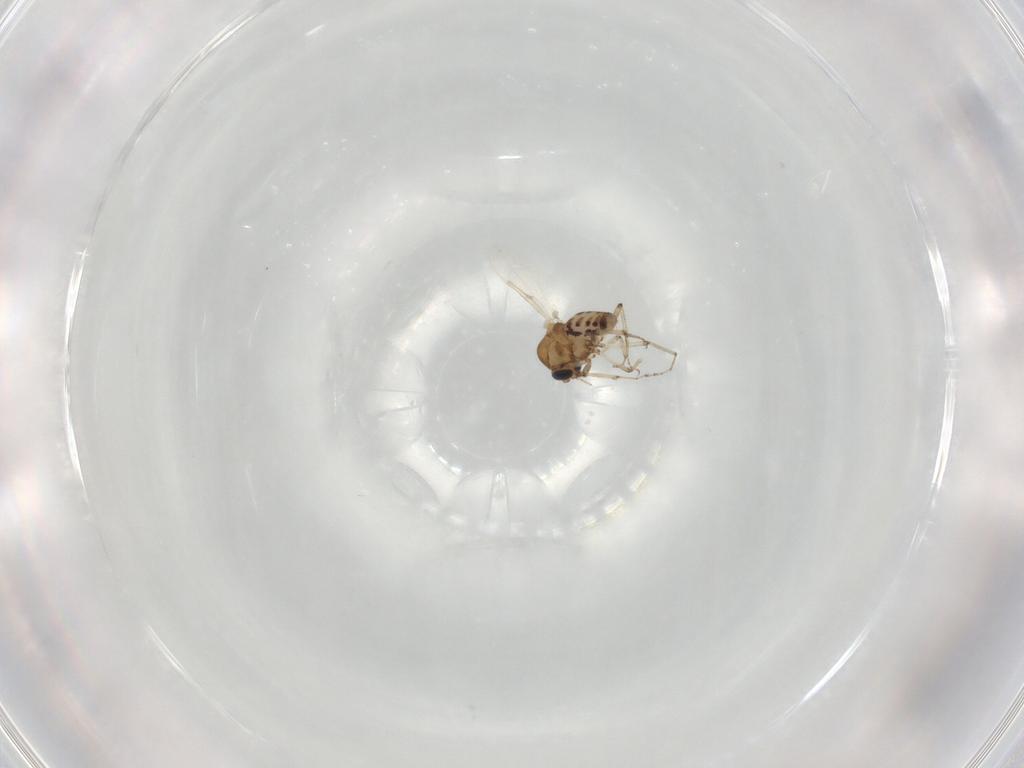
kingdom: Animalia
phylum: Arthropoda
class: Insecta
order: Diptera
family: Ceratopogonidae
